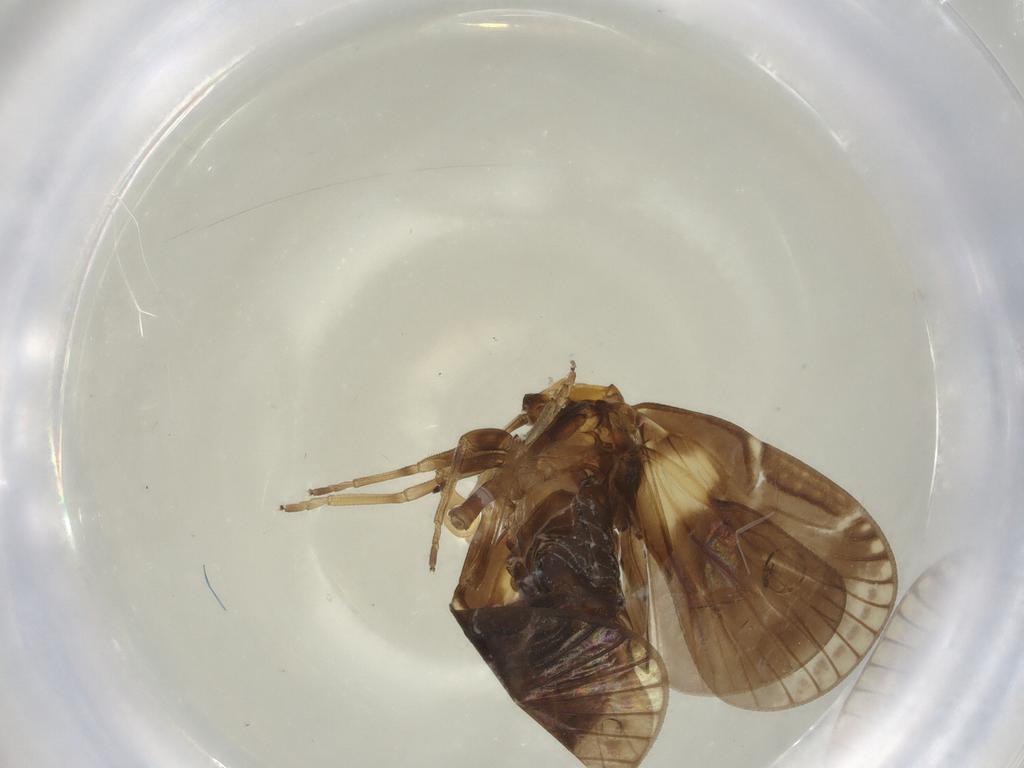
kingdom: Animalia
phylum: Arthropoda
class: Insecta
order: Hemiptera
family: Cixiidae
